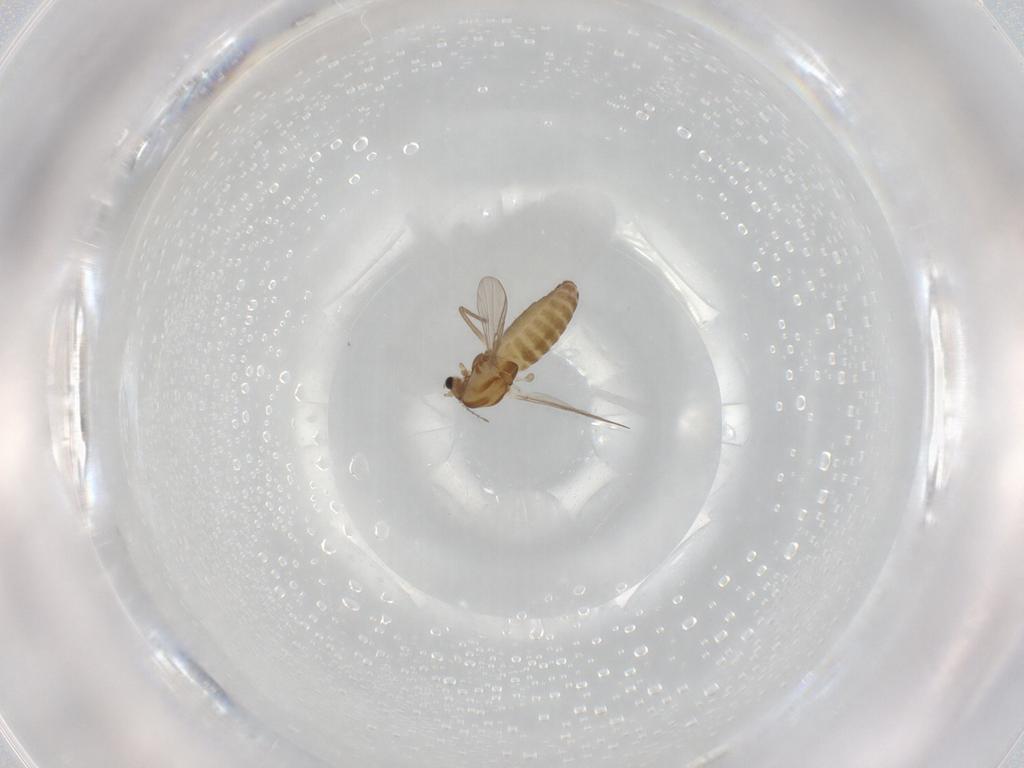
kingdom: Animalia
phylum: Arthropoda
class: Insecta
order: Diptera
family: Chironomidae
